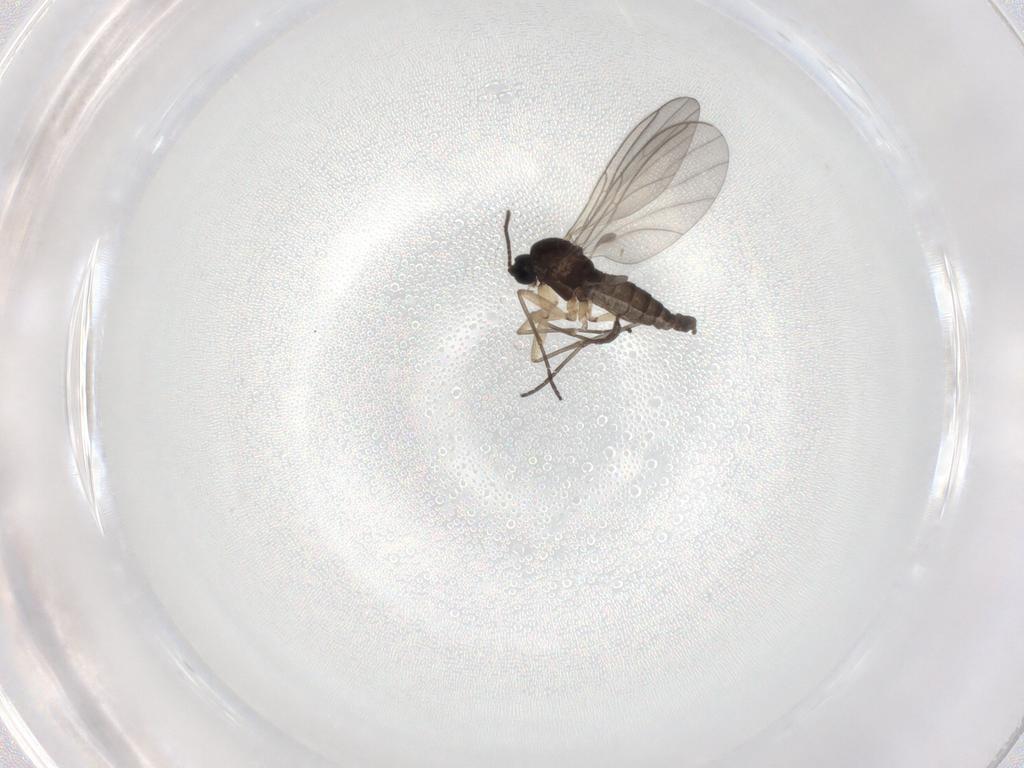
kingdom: Animalia
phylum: Arthropoda
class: Insecta
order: Diptera
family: Sciaridae
